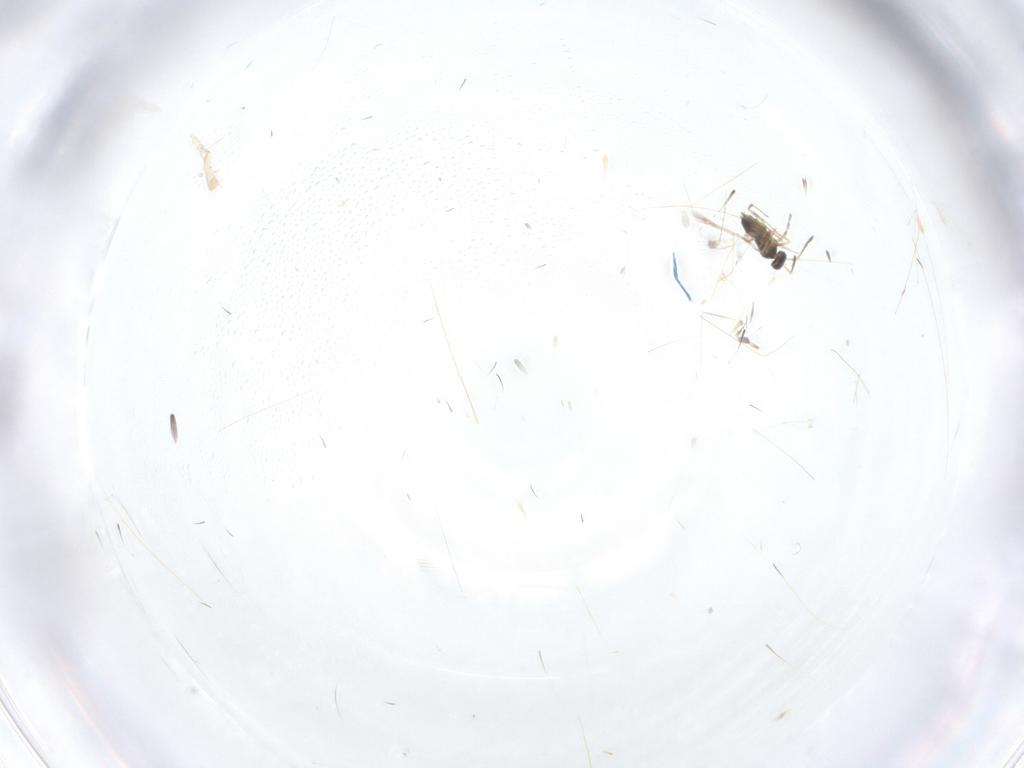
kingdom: Animalia
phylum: Arthropoda
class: Insecta
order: Diptera
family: Cecidomyiidae
